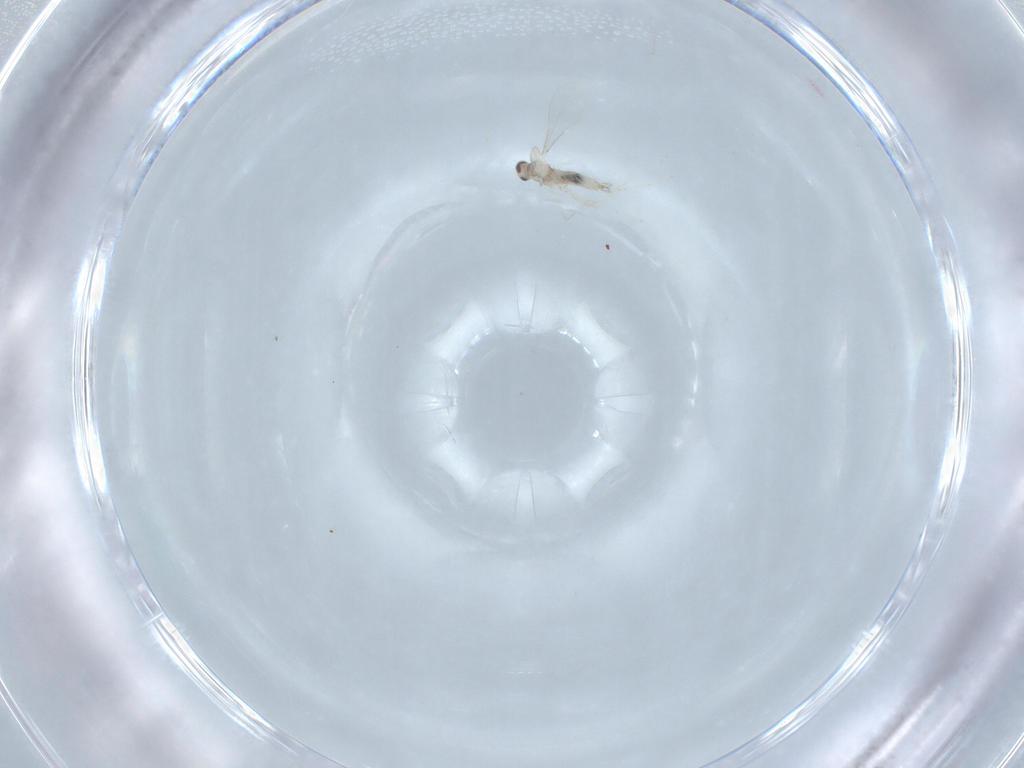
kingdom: Animalia
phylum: Arthropoda
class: Insecta
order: Diptera
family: Cecidomyiidae
